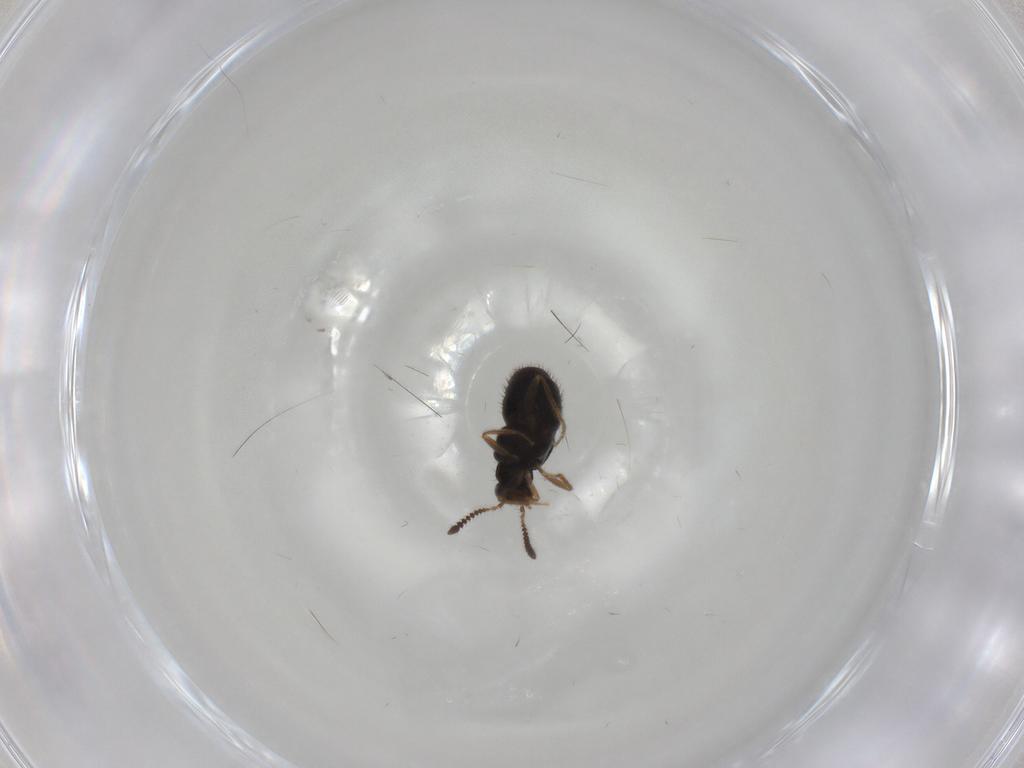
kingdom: Animalia
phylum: Arthropoda
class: Insecta
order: Coleoptera
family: Staphylinidae
